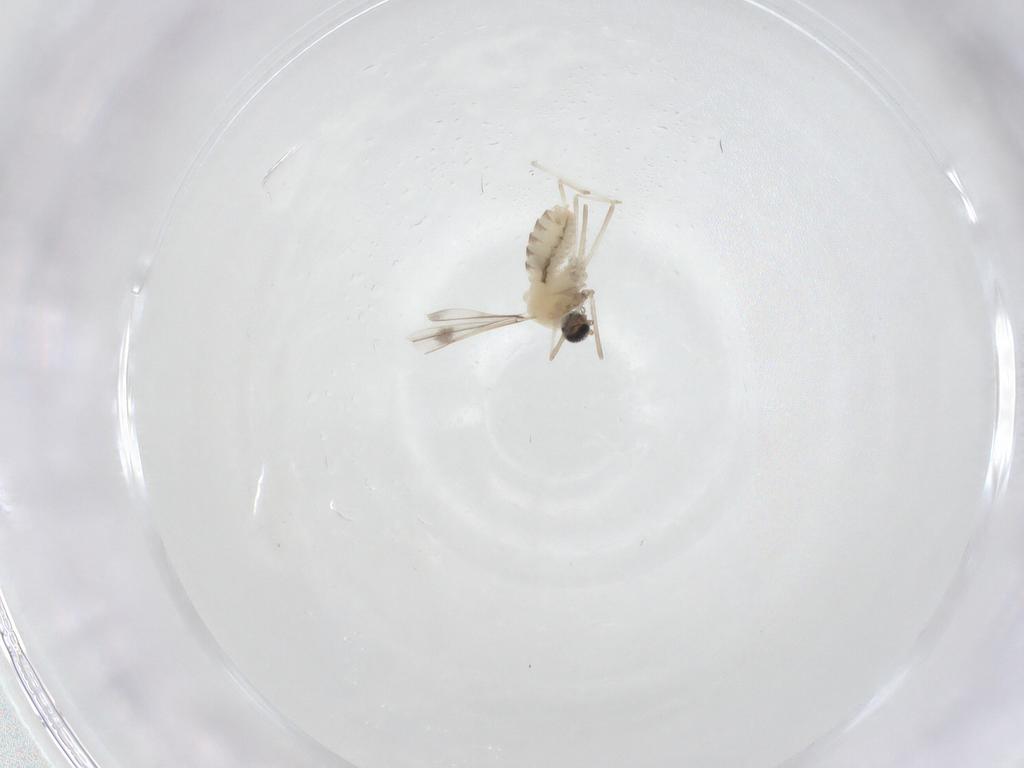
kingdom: Animalia
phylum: Arthropoda
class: Insecta
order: Diptera
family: Cecidomyiidae
